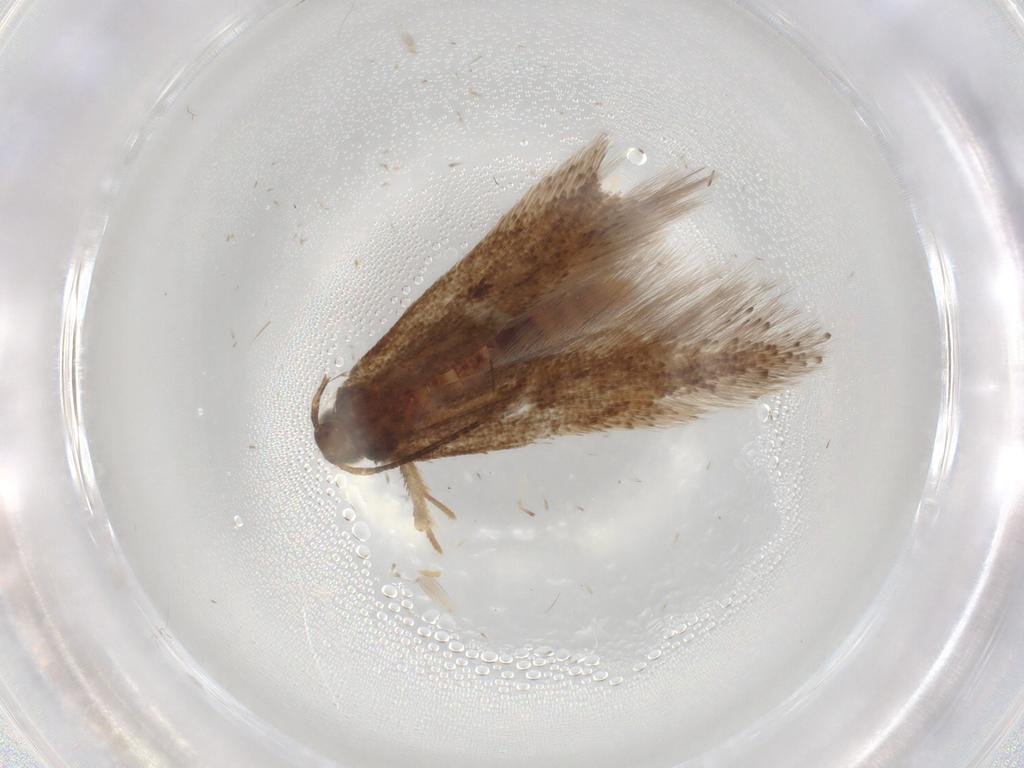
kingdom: Animalia
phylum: Arthropoda
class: Insecta
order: Lepidoptera
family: Gelechiidae
